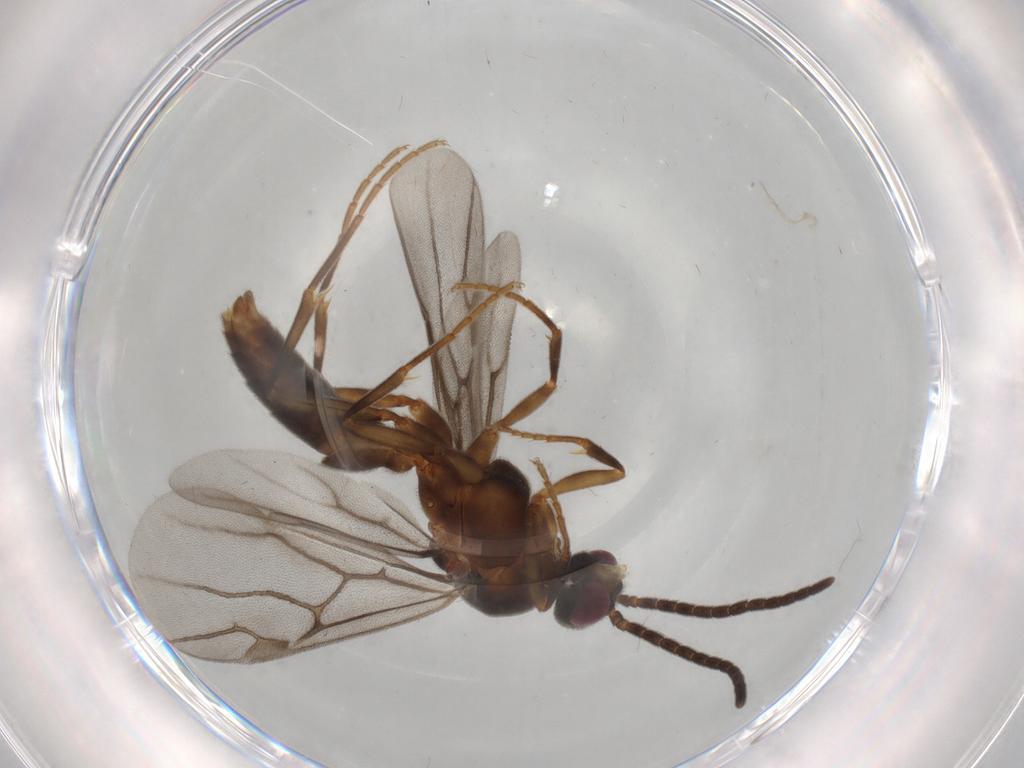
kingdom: Animalia
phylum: Arthropoda
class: Insecta
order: Hymenoptera
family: Formicidae
